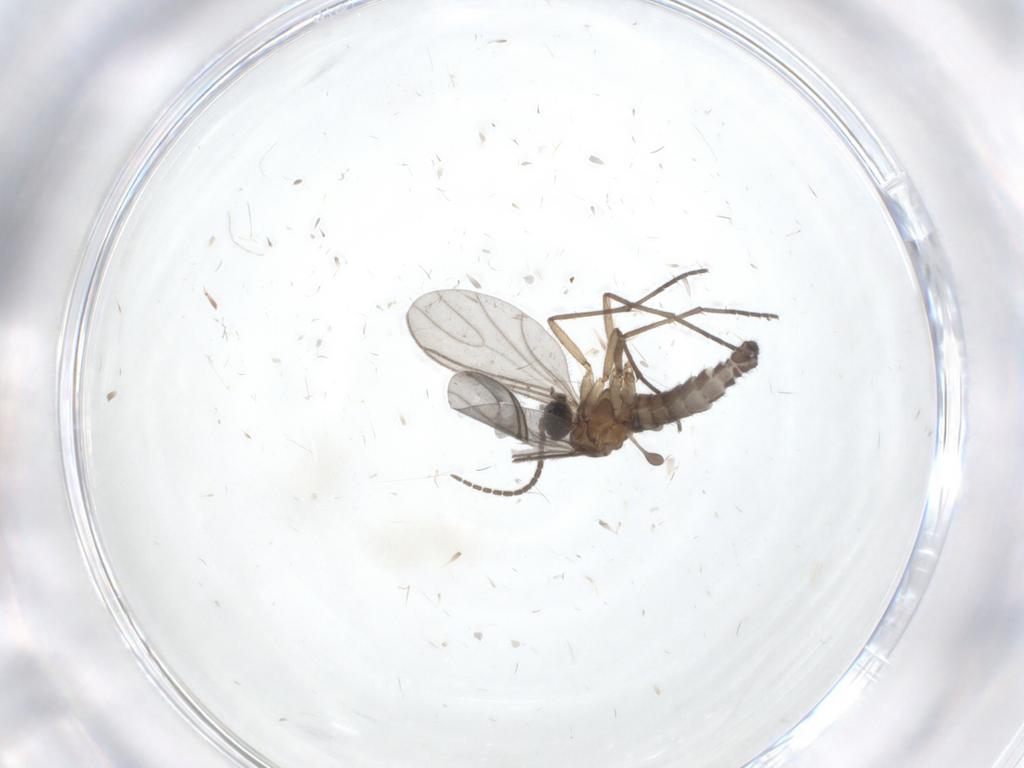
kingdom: Animalia
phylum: Arthropoda
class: Insecta
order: Diptera
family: Sciaridae
